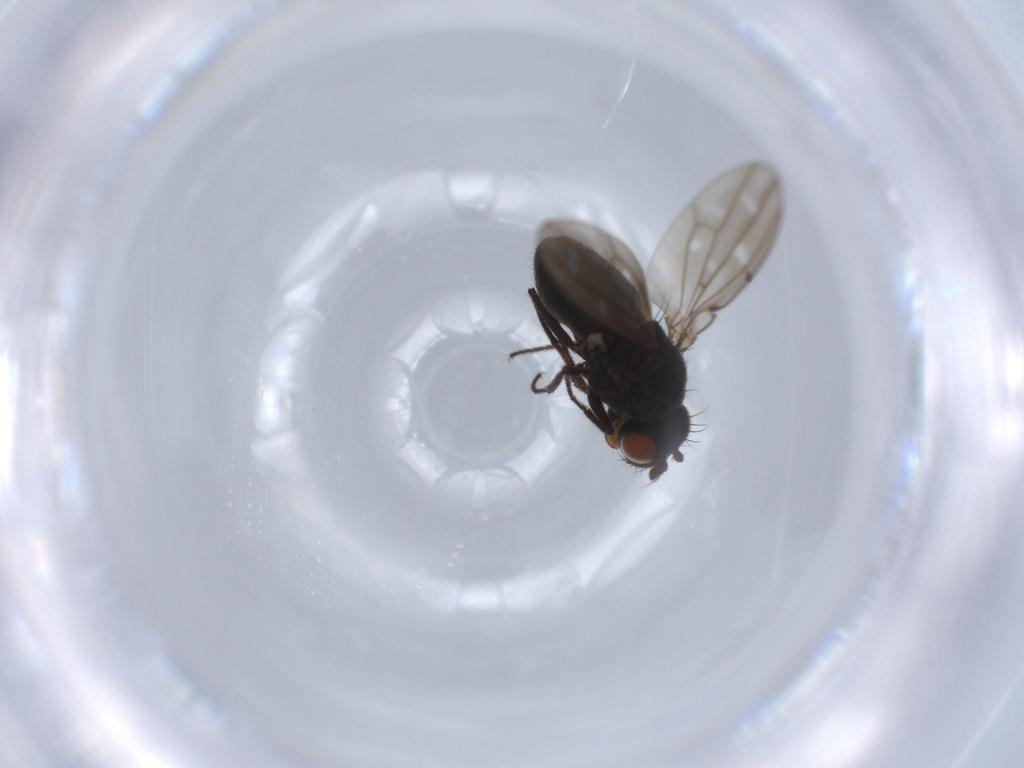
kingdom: Animalia
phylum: Arthropoda
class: Insecta
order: Diptera
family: Ephydridae
